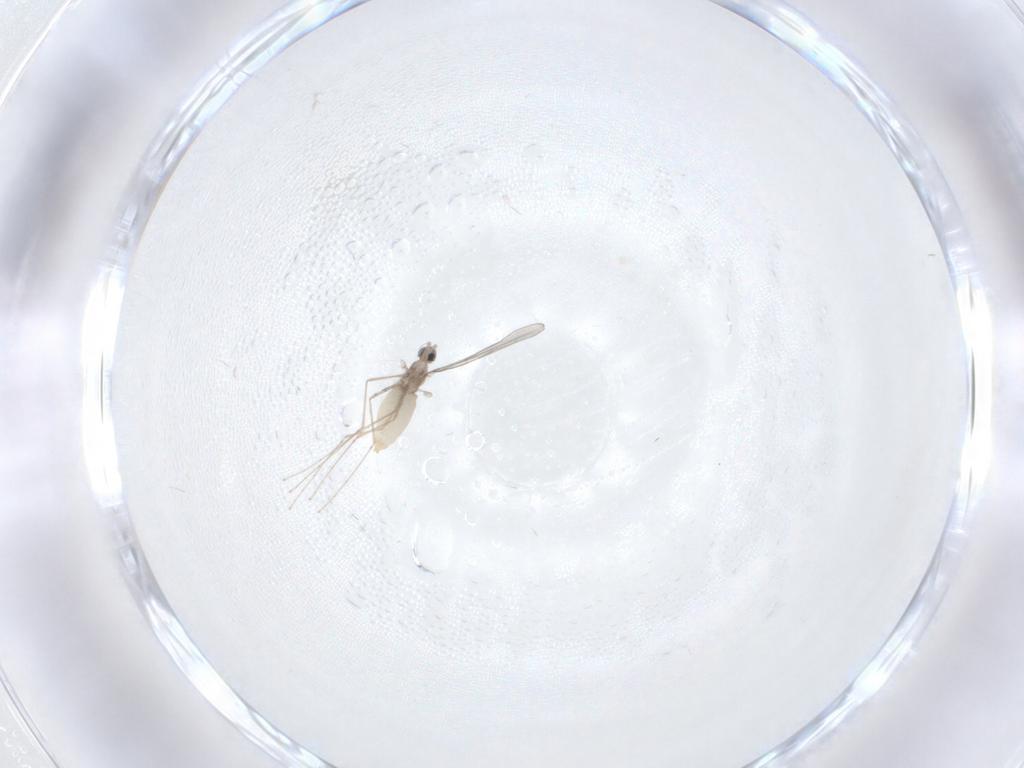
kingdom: Animalia
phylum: Arthropoda
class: Insecta
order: Diptera
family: Phoridae
